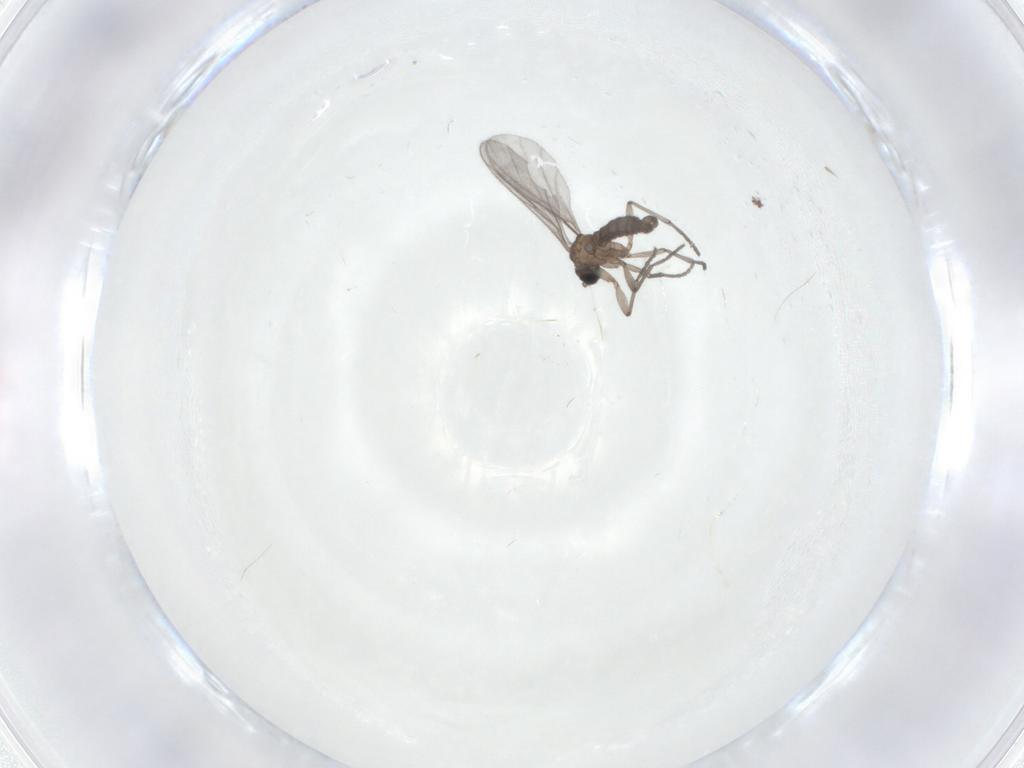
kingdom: Animalia
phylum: Arthropoda
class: Insecta
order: Diptera
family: Sciaridae
